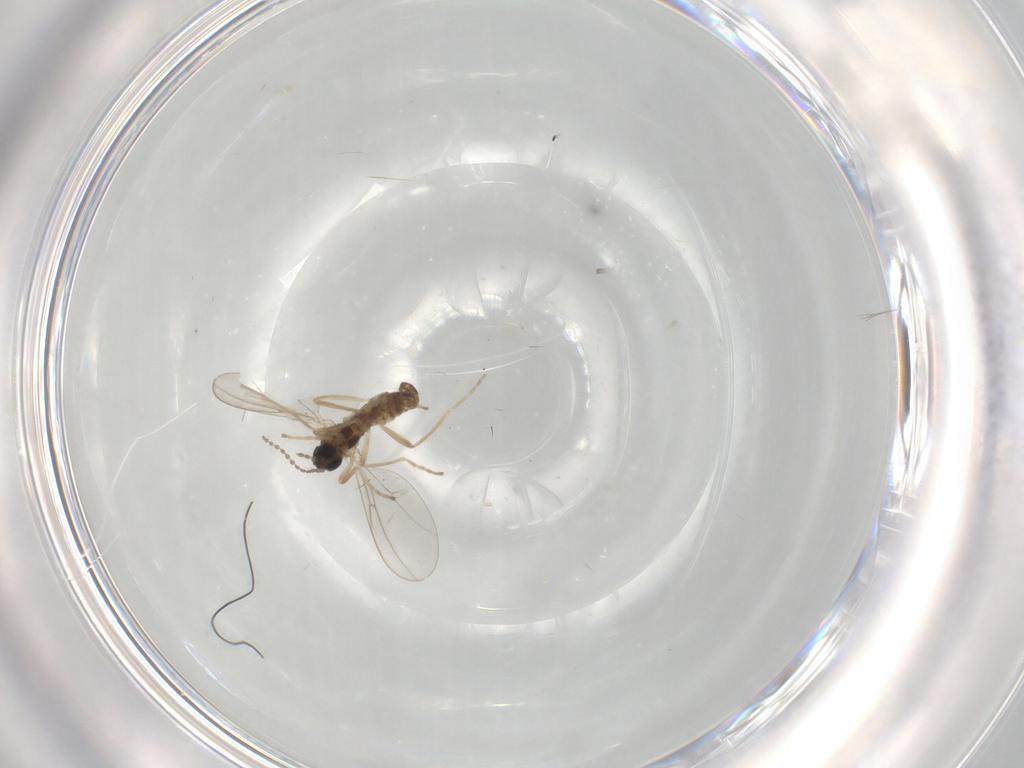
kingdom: Animalia
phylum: Arthropoda
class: Insecta
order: Diptera
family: Cecidomyiidae
